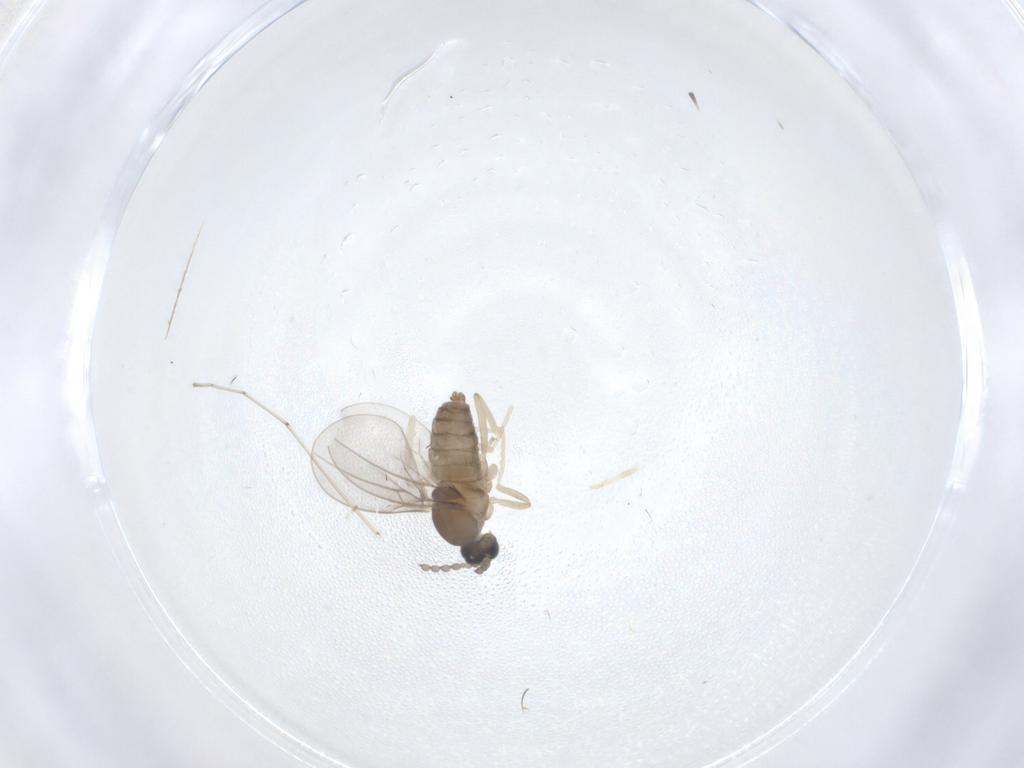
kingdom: Animalia
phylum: Arthropoda
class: Insecta
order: Diptera
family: Cecidomyiidae
